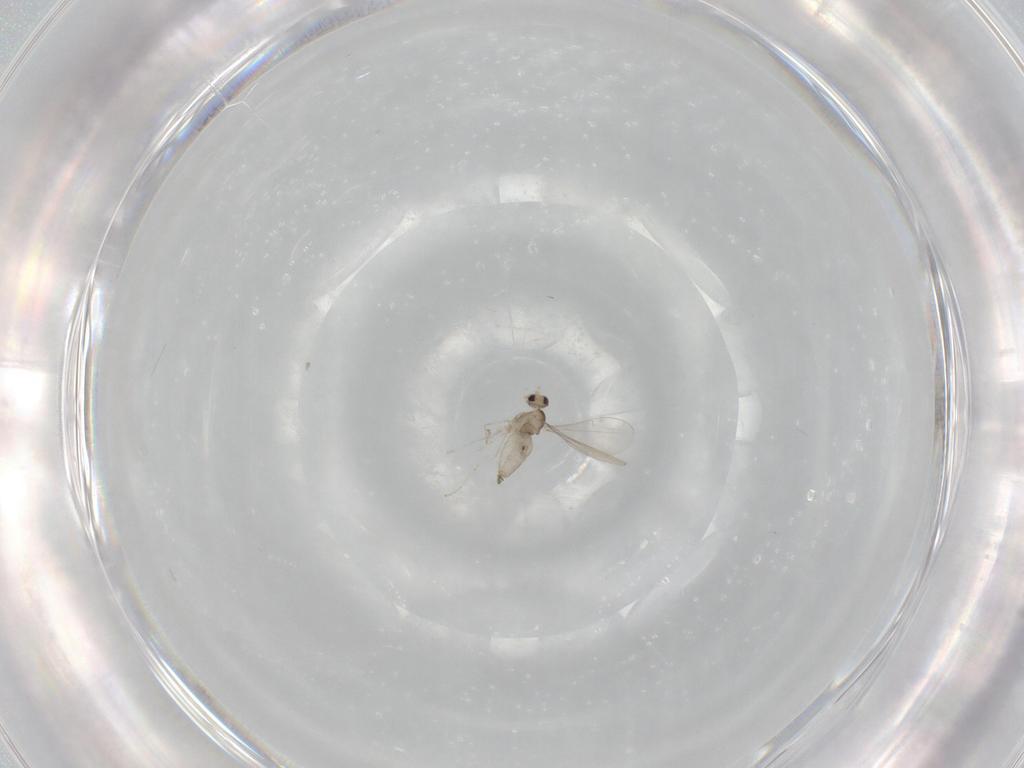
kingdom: Animalia
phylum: Arthropoda
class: Insecta
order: Diptera
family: Cecidomyiidae
